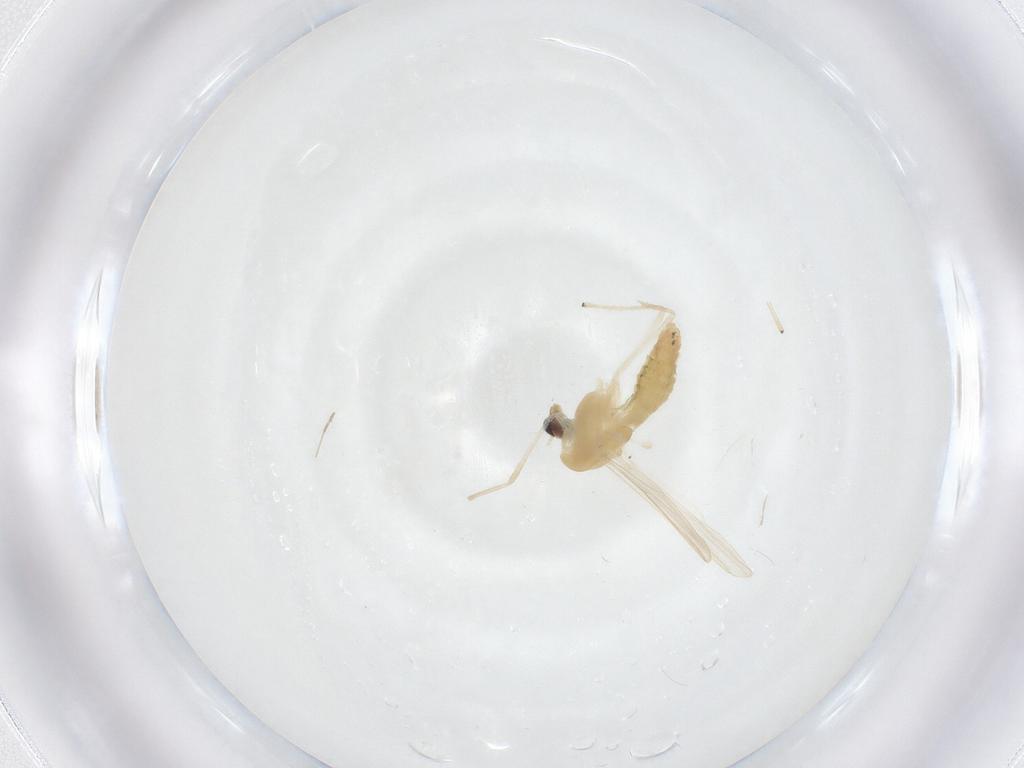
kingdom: Animalia
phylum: Arthropoda
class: Insecta
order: Diptera
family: Chironomidae
